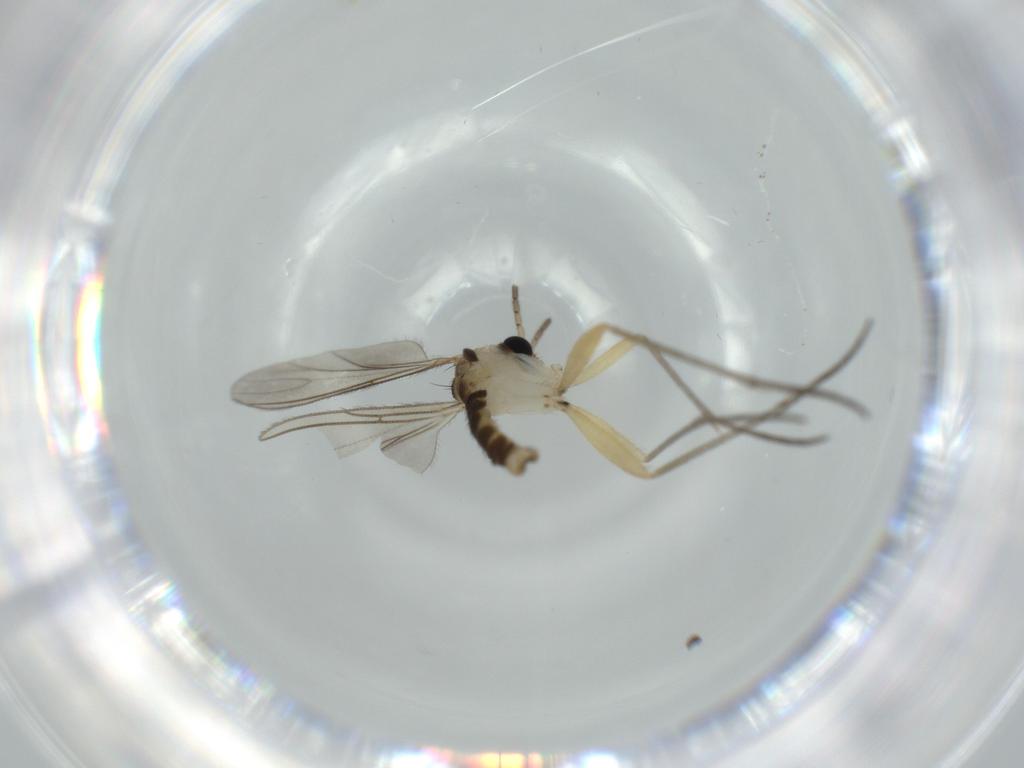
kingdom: Animalia
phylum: Arthropoda
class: Insecta
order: Diptera
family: Sciaridae
